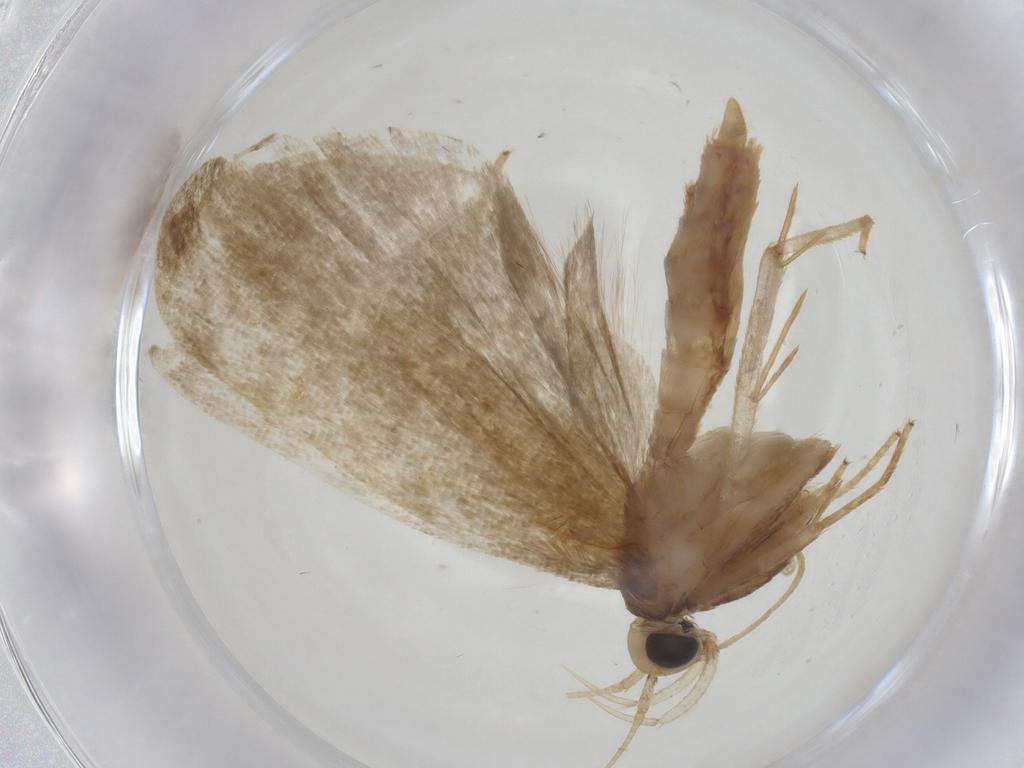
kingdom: Animalia
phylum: Arthropoda
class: Insecta
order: Lepidoptera
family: Autostichidae
